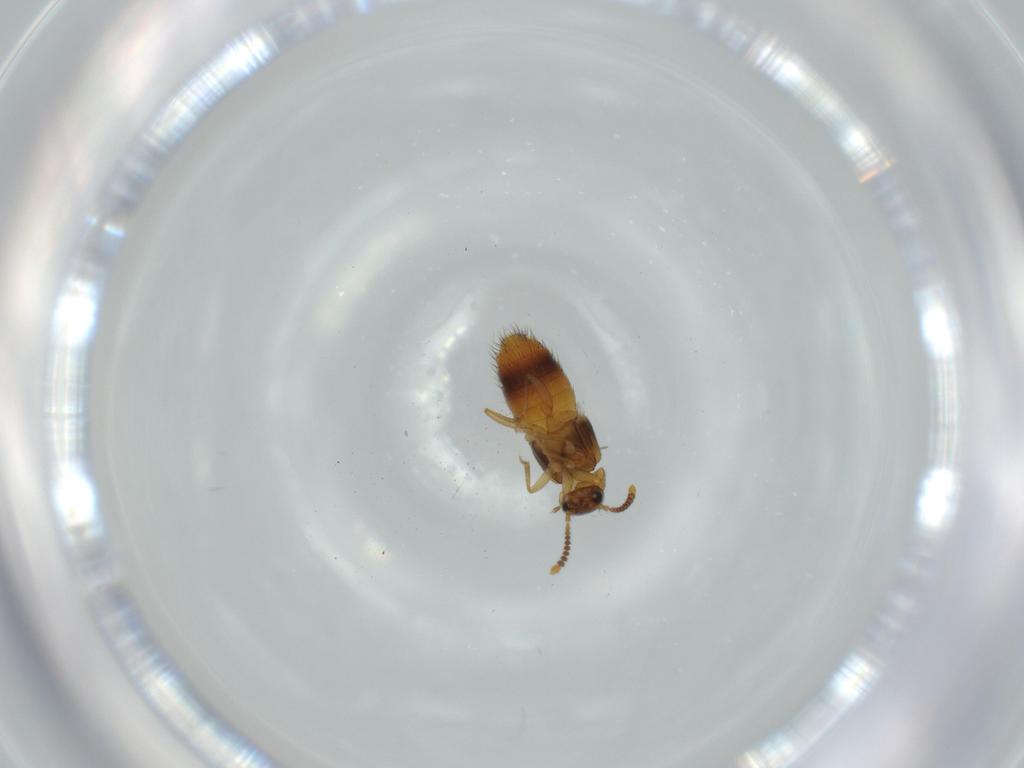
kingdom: Animalia
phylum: Arthropoda
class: Insecta
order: Coleoptera
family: Staphylinidae
